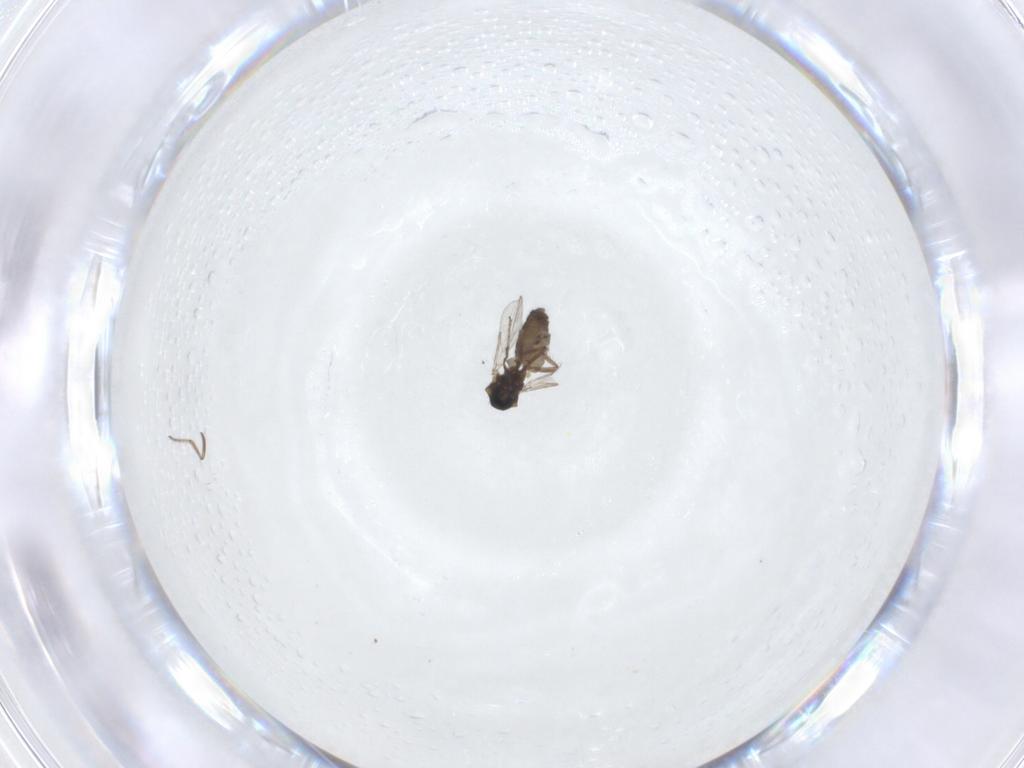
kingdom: Animalia
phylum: Arthropoda
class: Insecta
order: Diptera
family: Ceratopogonidae
